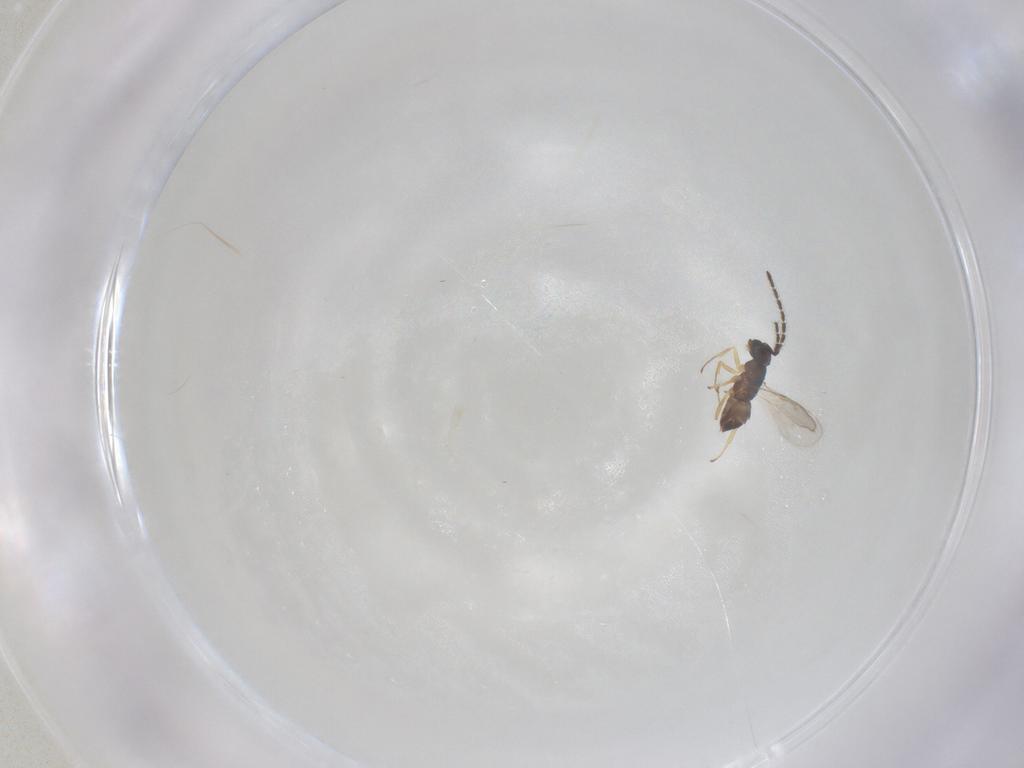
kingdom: Animalia
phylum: Arthropoda
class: Insecta
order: Hymenoptera
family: Scelionidae
